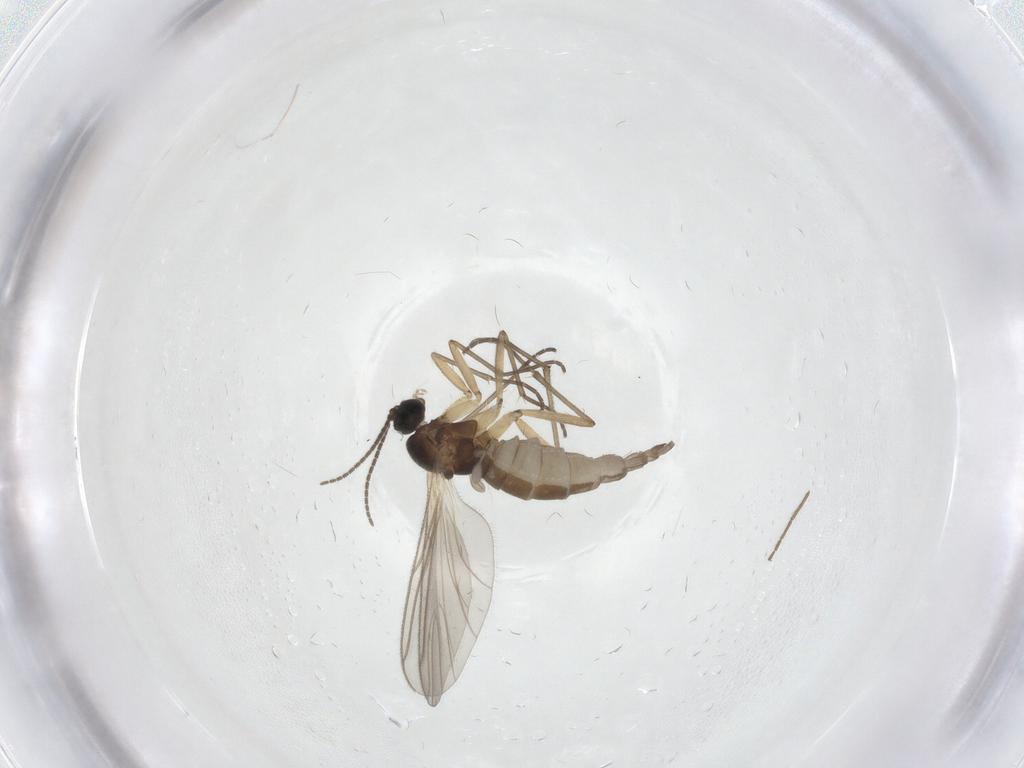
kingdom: Animalia
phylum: Arthropoda
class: Insecta
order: Diptera
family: Sciaridae
